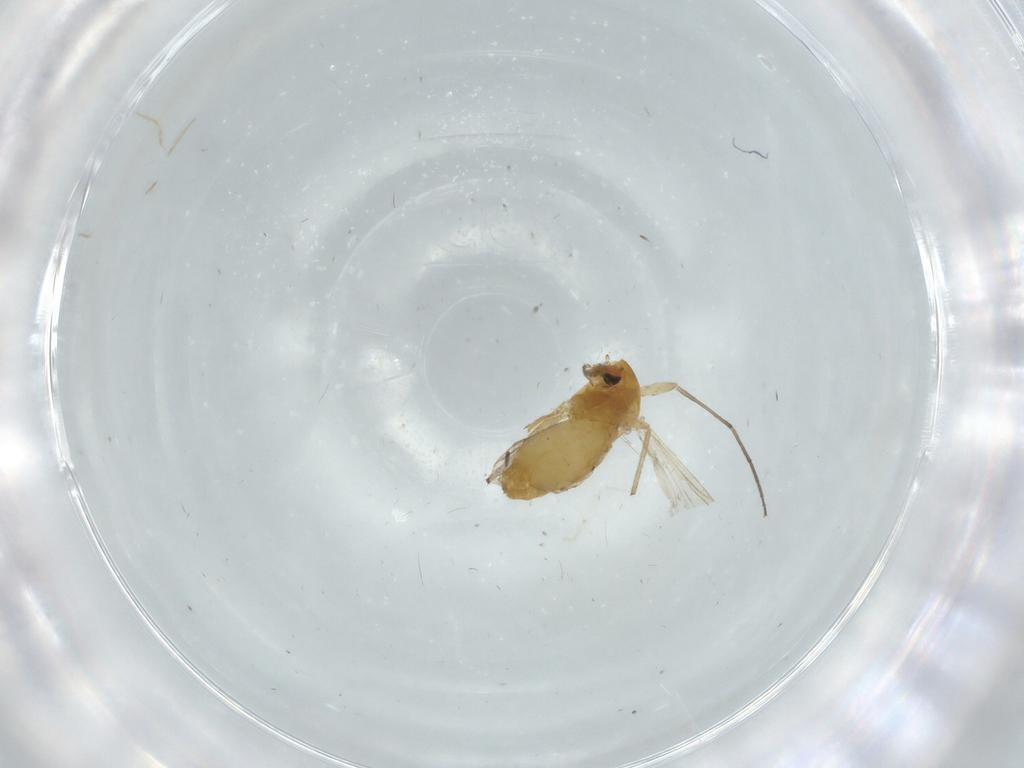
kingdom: Animalia
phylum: Arthropoda
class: Insecta
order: Diptera
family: Chironomidae
